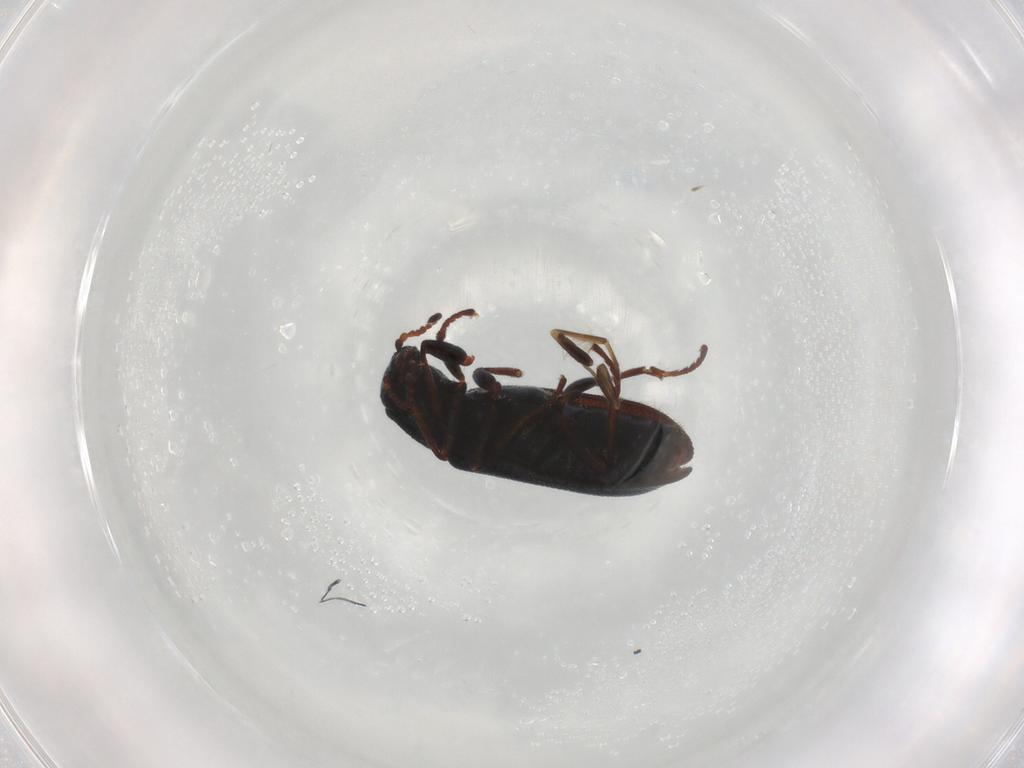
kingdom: Animalia
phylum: Arthropoda
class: Insecta
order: Coleoptera
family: Melyridae
